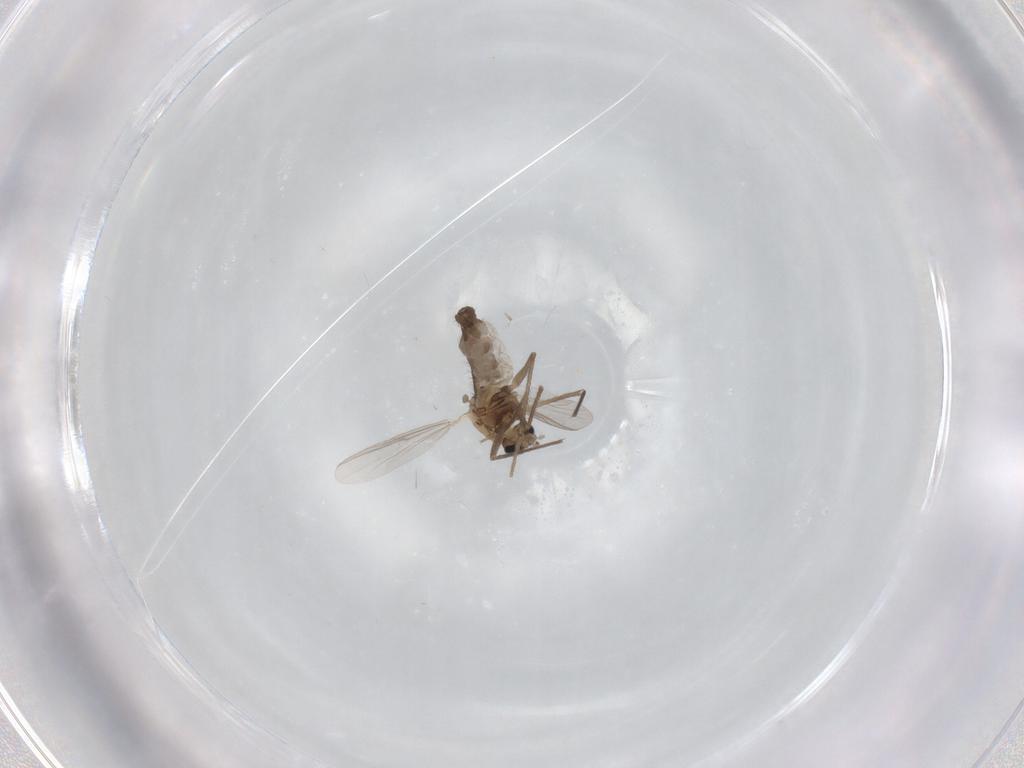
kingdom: Animalia
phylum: Arthropoda
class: Insecta
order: Diptera
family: Chironomidae
